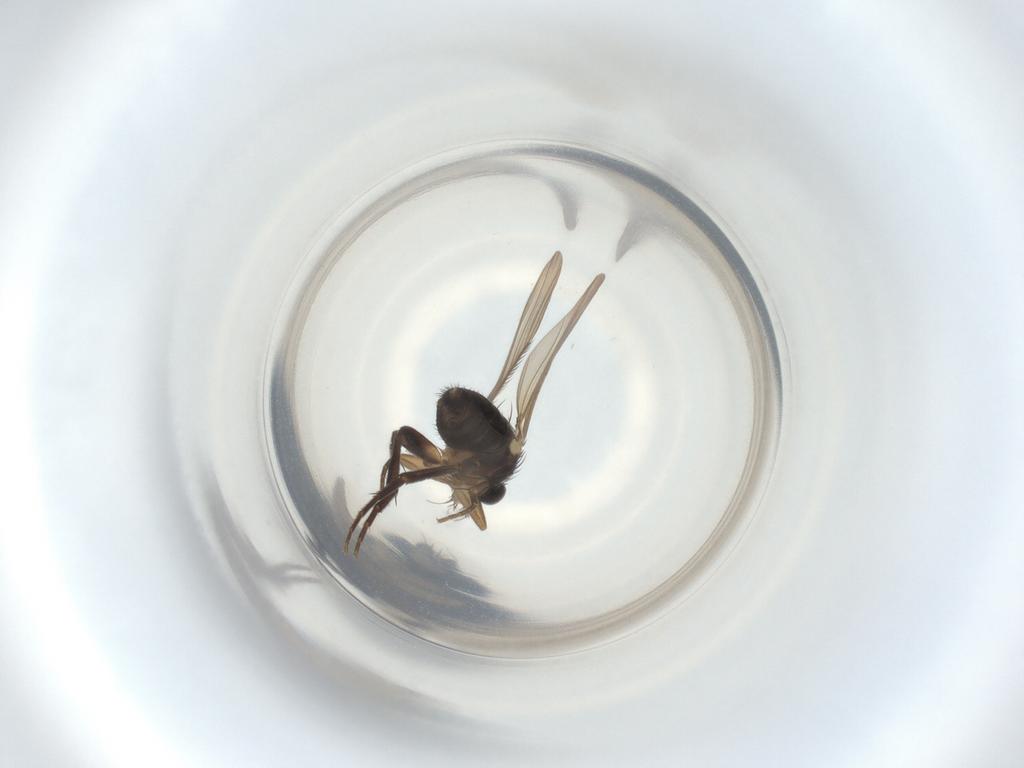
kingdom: Animalia
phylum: Arthropoda
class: Insecta
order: Diptera
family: Phoridae
